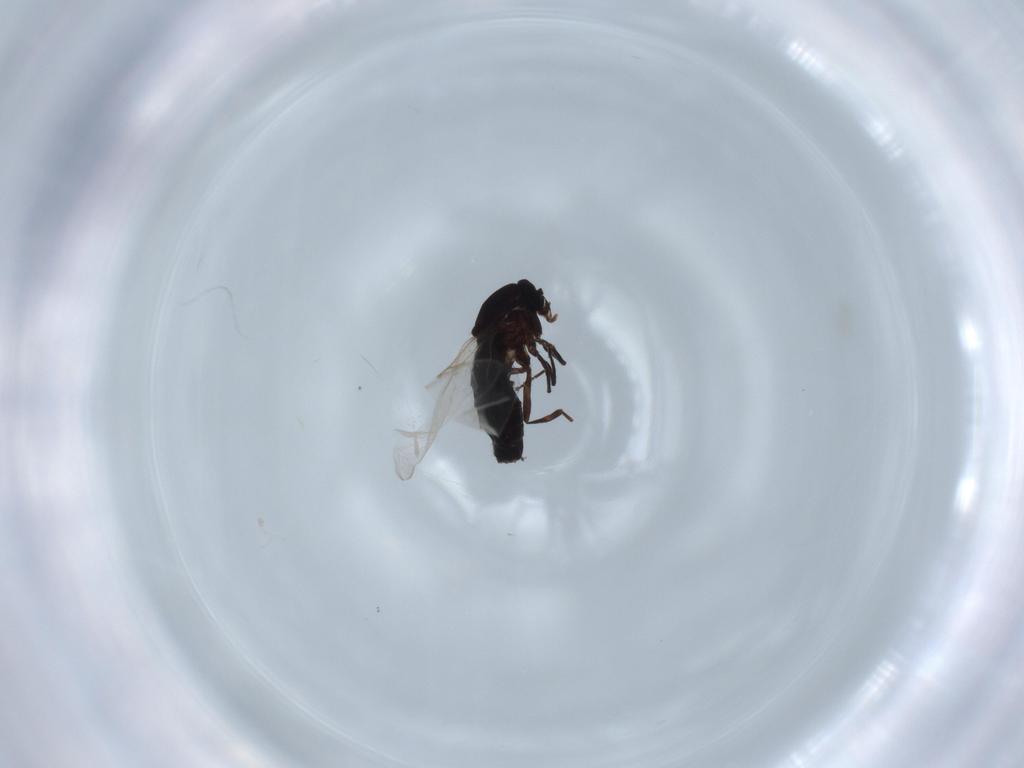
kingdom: Animalia
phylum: Arthropoda
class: Insecta
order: Diptera
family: Scatopsidae
